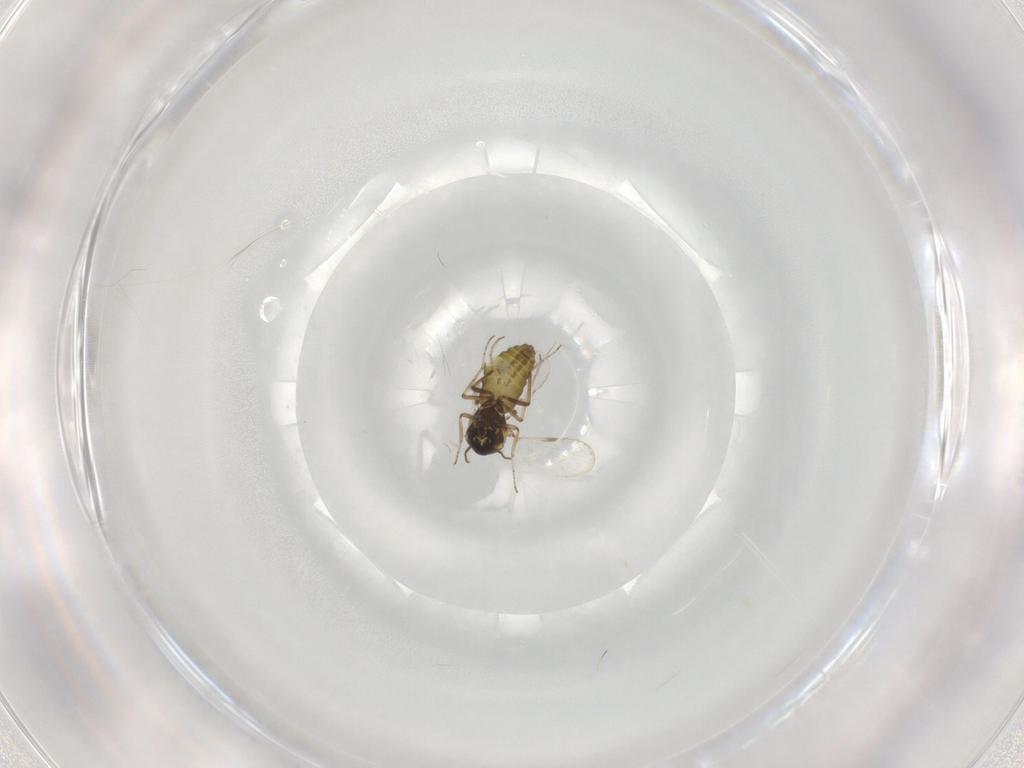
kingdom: Animalia
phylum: Arthropoda
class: Insecta
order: Diptera
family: Ceratopogonidae
